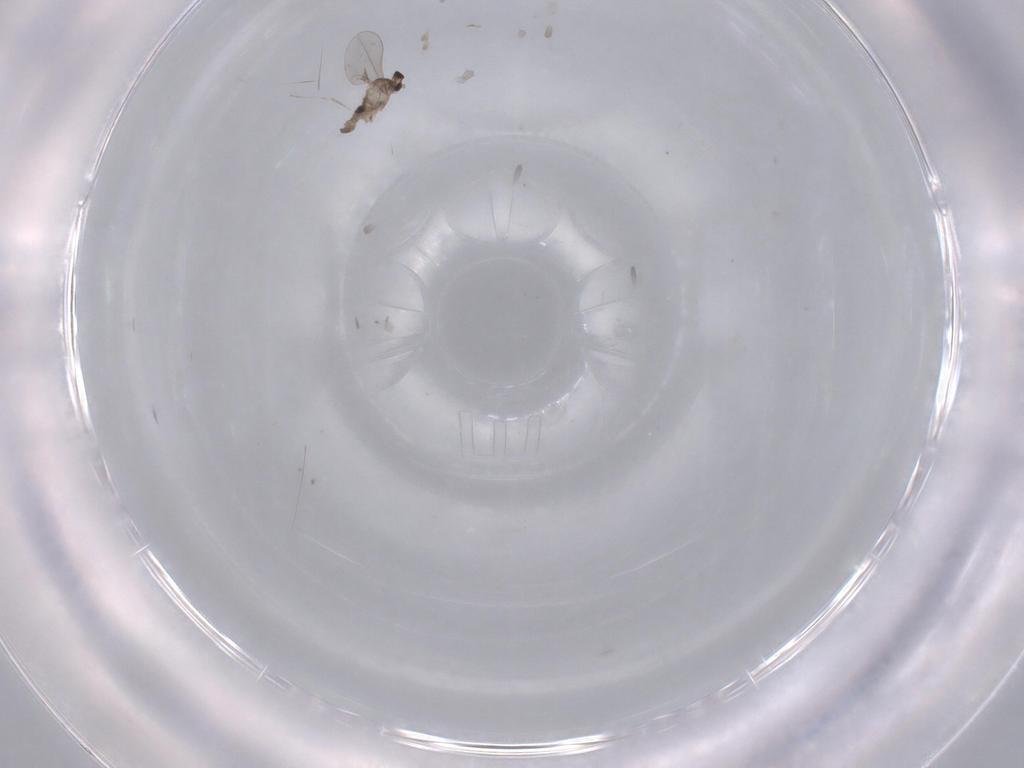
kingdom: Animalia
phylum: Arthropoda
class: Insecta
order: Diptera
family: Cecidomyiidae
